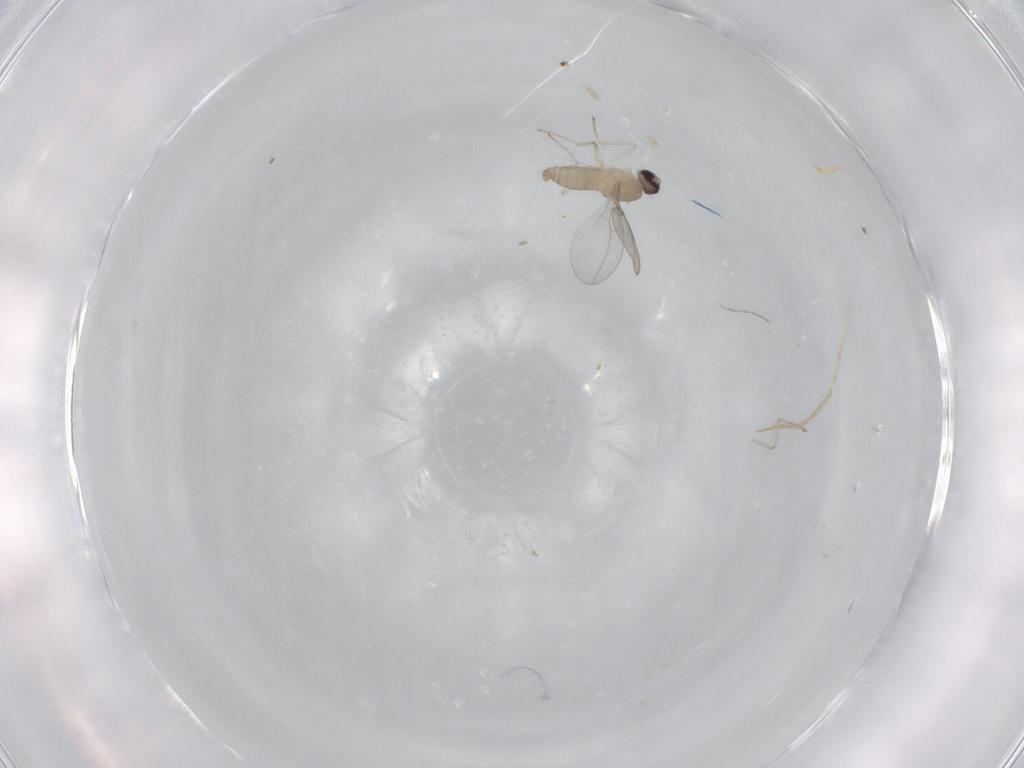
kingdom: Animalia
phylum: Arthropoda
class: Insecta
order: Diptera
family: Cecidomyiidae
